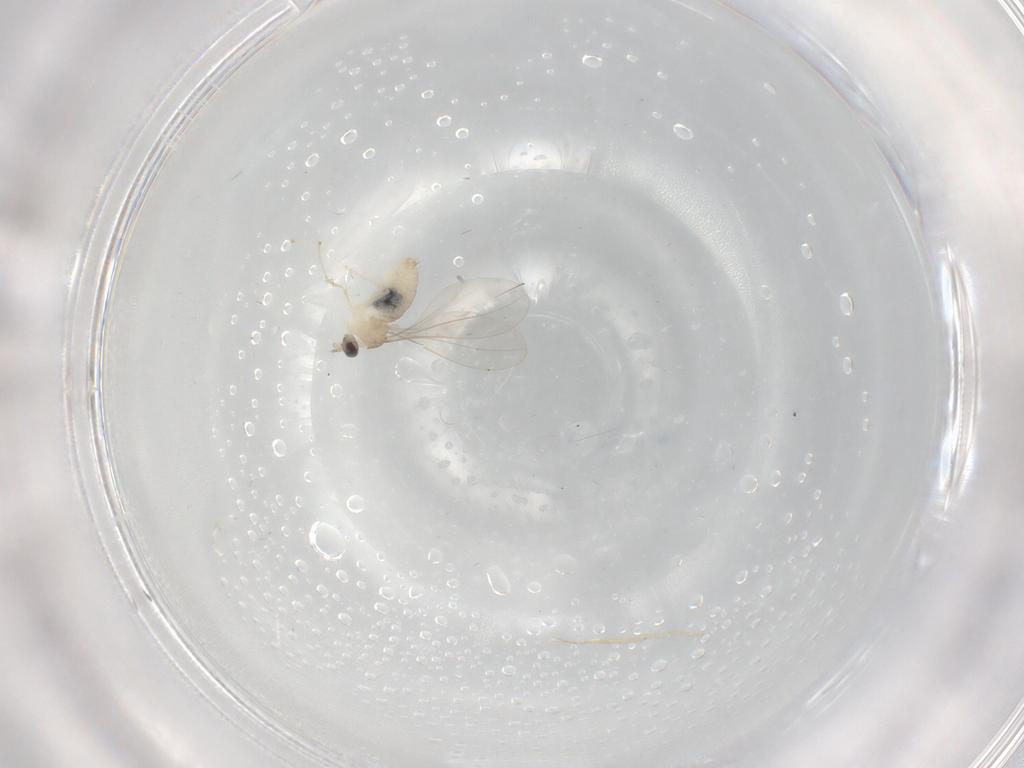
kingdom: Animalia
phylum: Arthropoda
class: Insecta
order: Diptera
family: Cecidomyiidae
